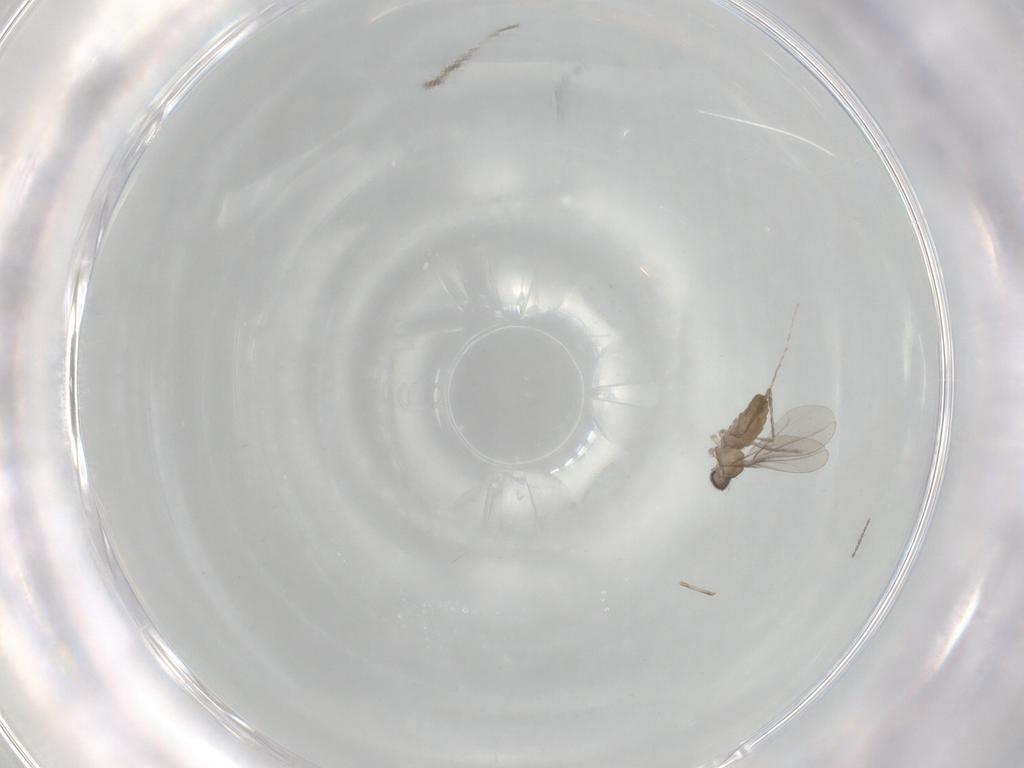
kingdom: Animalia
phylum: Arthropoda
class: Insecta
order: Diptera
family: Cecidomyiidae
